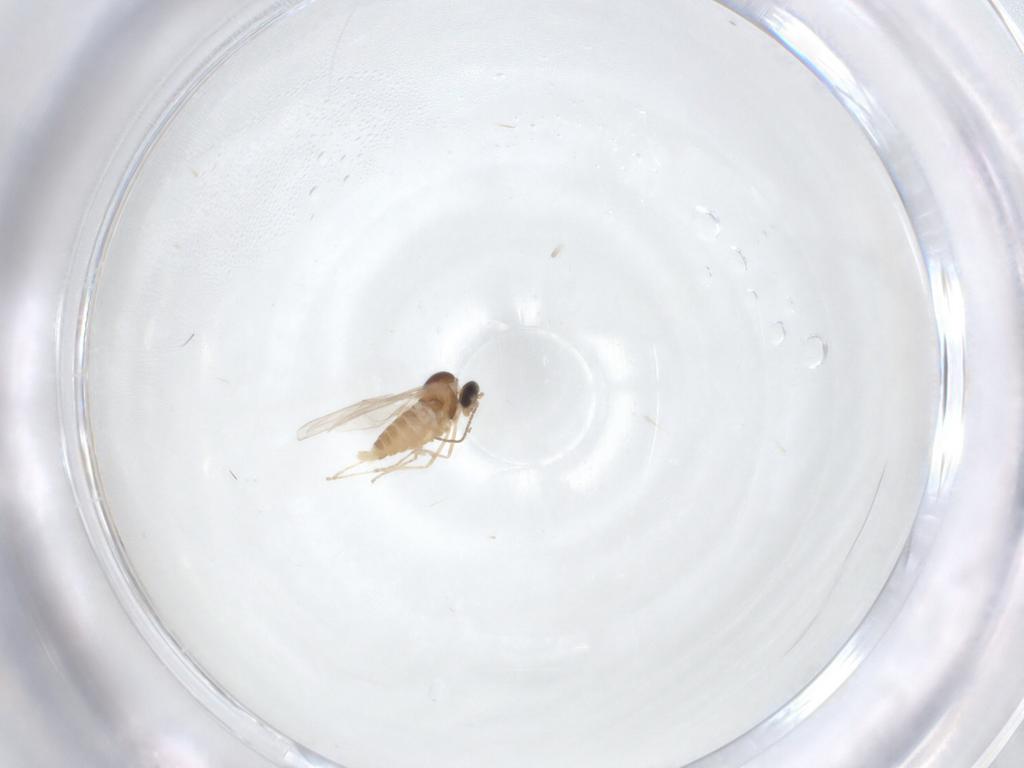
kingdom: Animalia
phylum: Arthropoda
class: Insecta
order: Diptera
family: Cecidomyiidae
